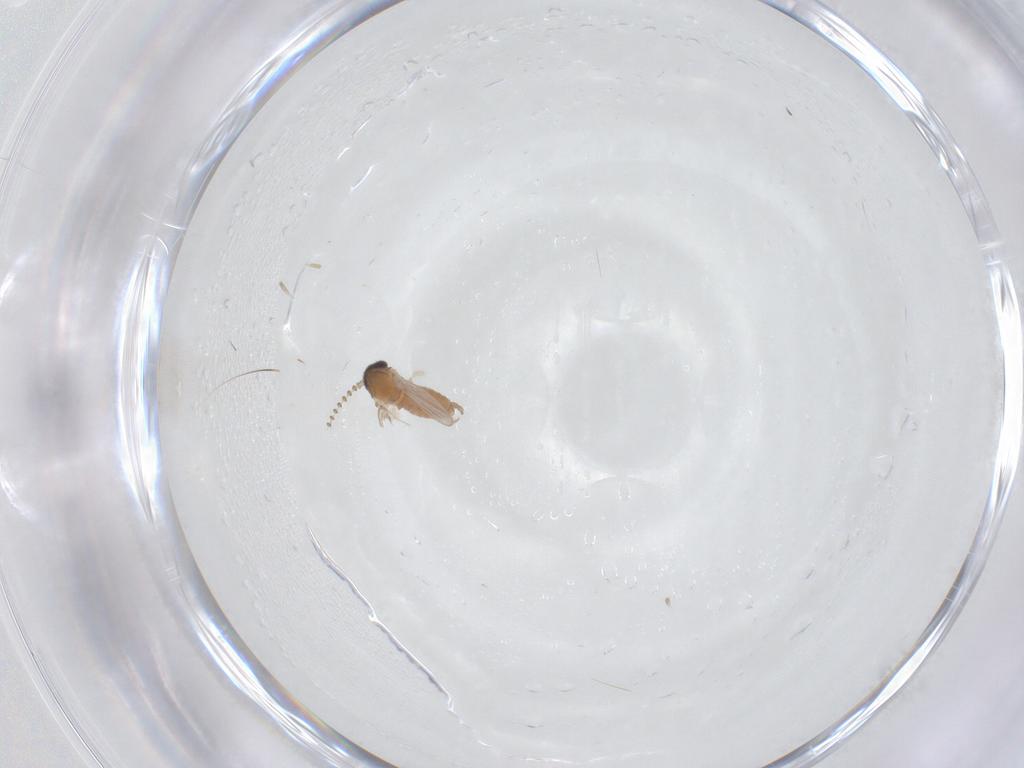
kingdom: Animalia
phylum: Arthropoda
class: Insecta
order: Diptera
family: Psychodidae
